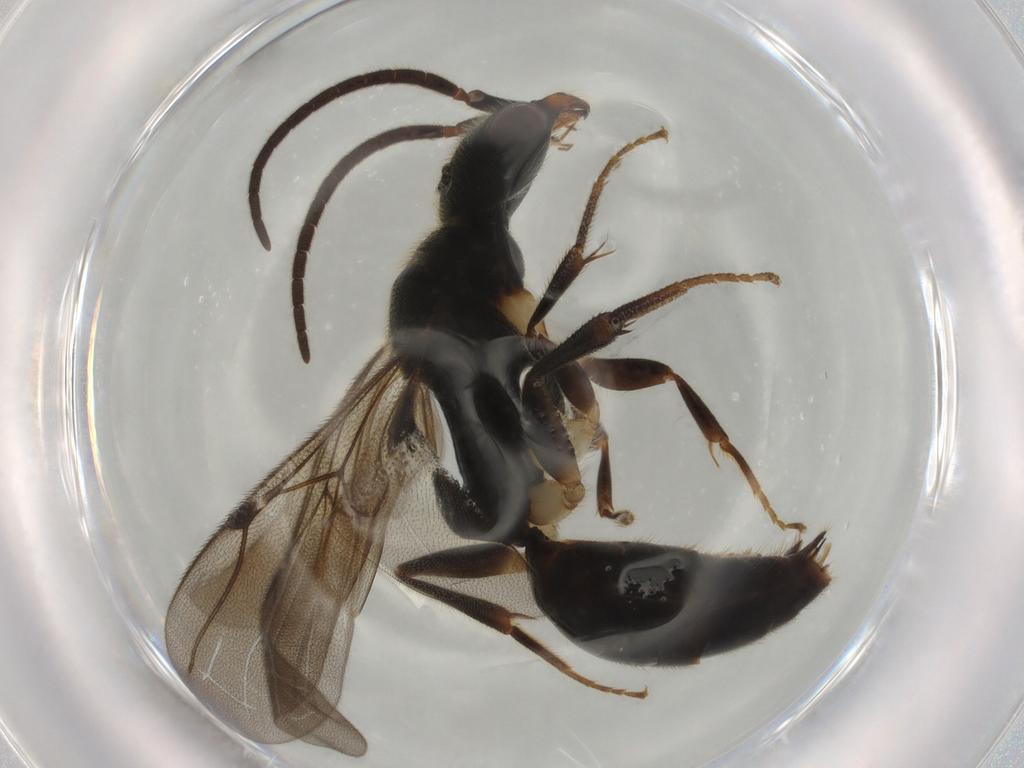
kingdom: Animalia
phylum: Arthropoda
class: Insecta
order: Hymenoptera
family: Bethylidae
